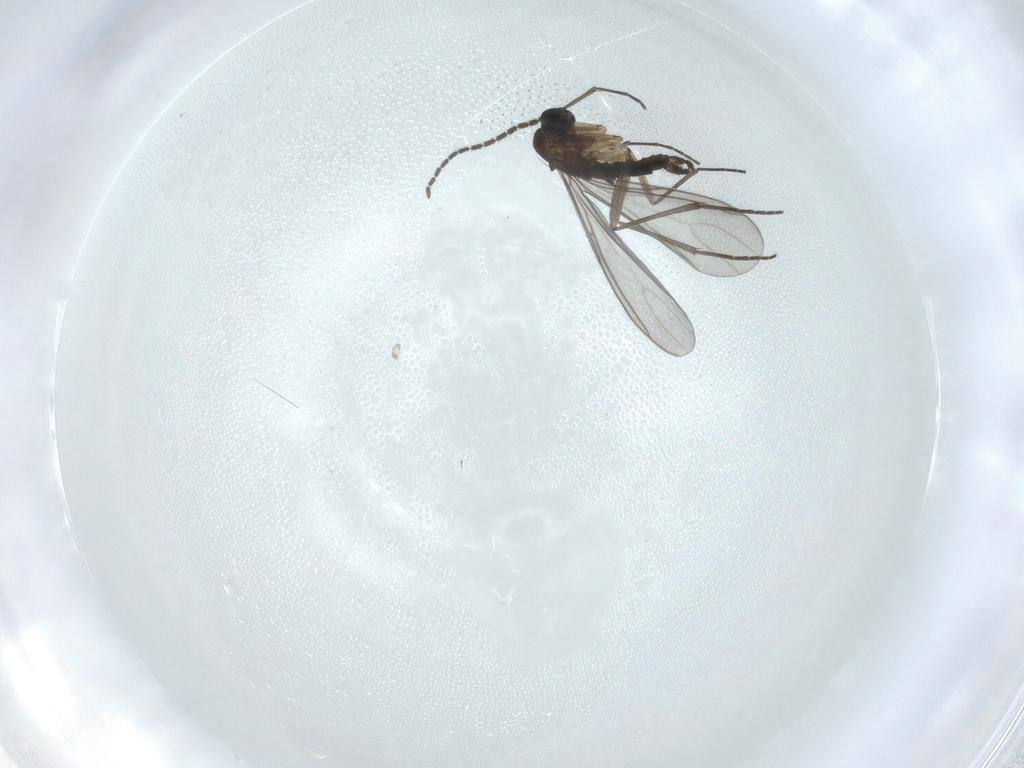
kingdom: Animalia
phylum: Arthropoda
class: Insecta
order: Diptera
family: Sciaridae
